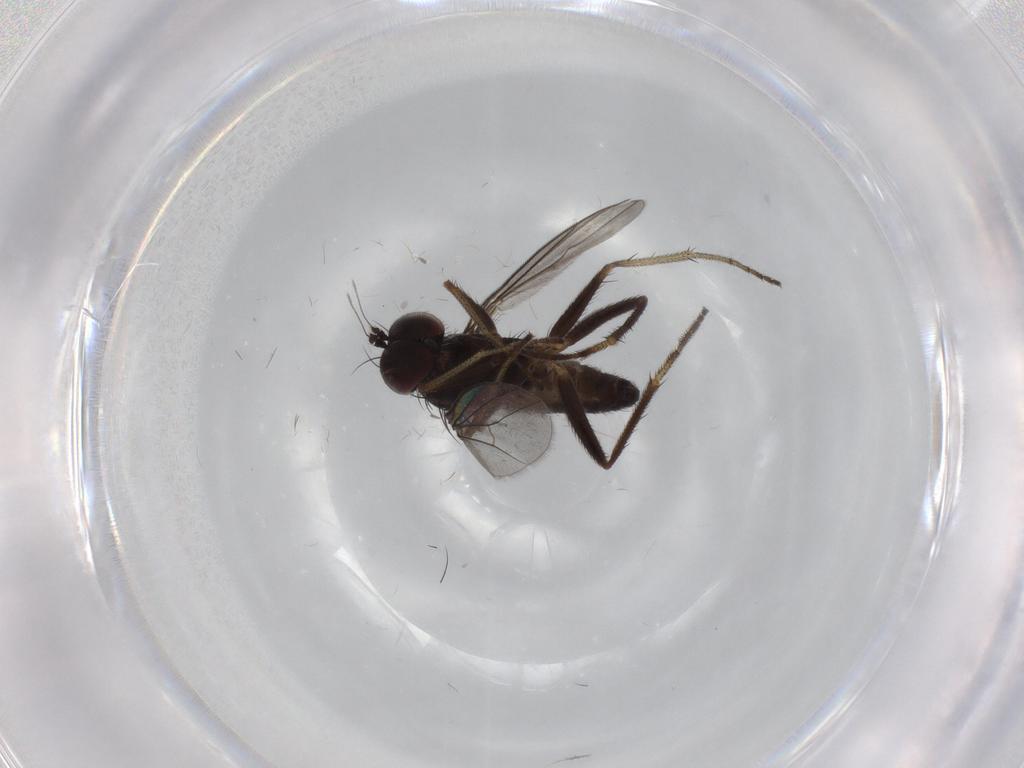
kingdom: Animalia
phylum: Arthropoda
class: Insecta
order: Diptera
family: Dolichopodidae
